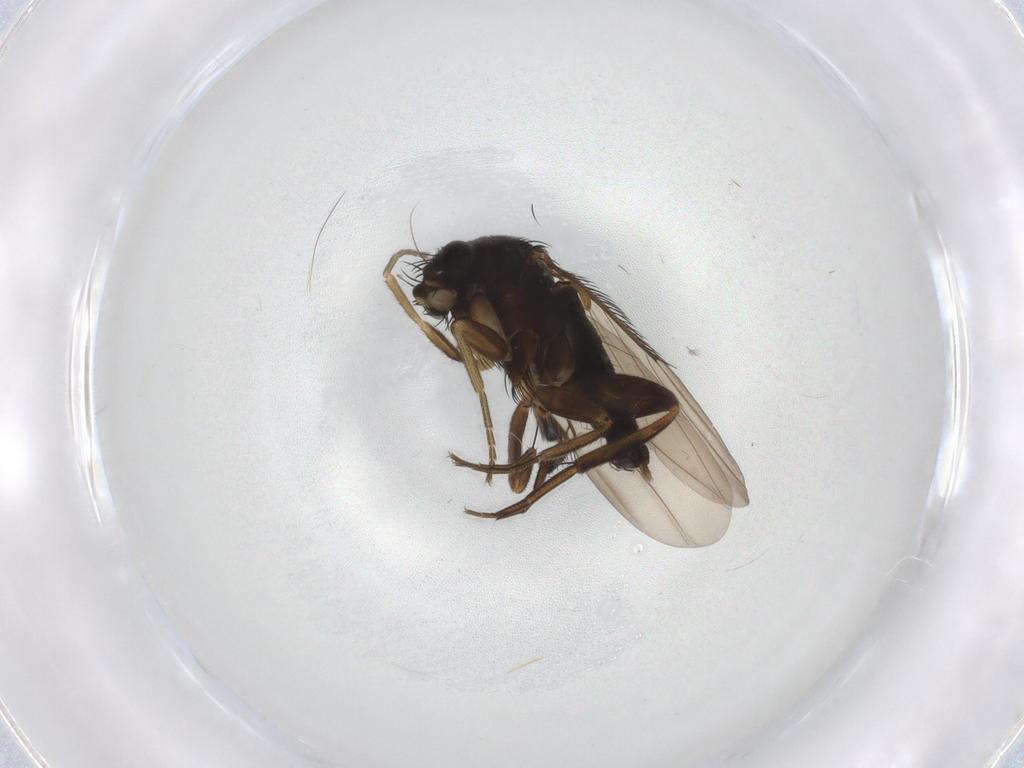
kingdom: Animalia
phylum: Arthropoda
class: Insecta
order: Diptera
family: Phoridae
